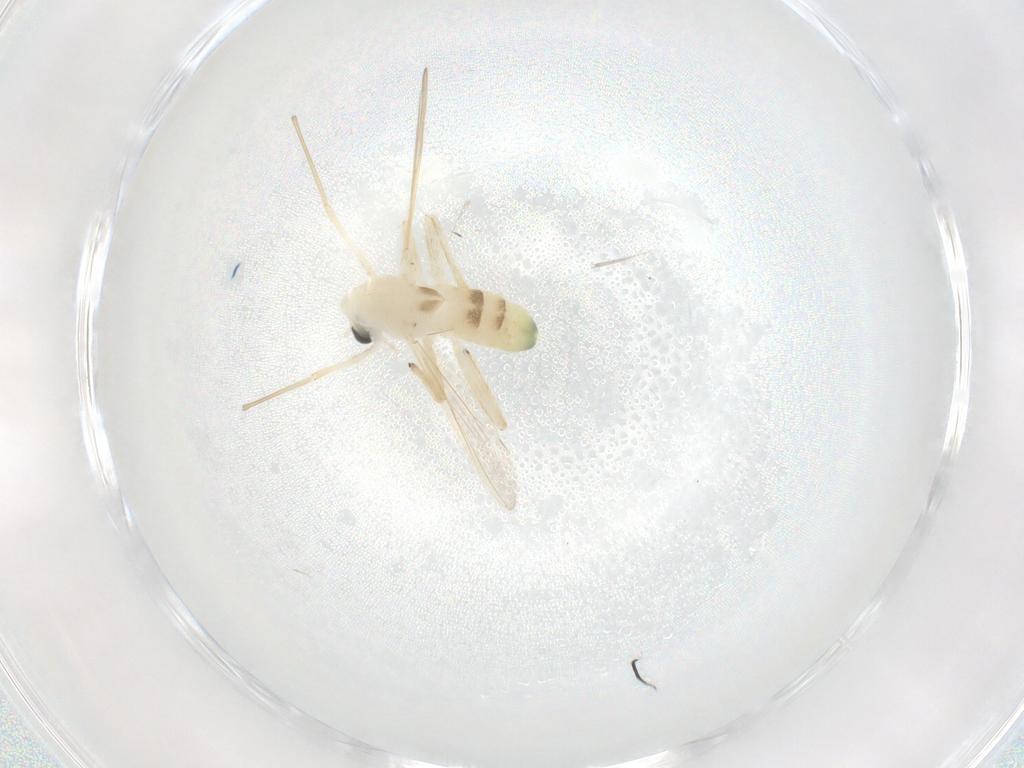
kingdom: Animalia
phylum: Arthropoda
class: Insecta
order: Diptera
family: Chironomidae
